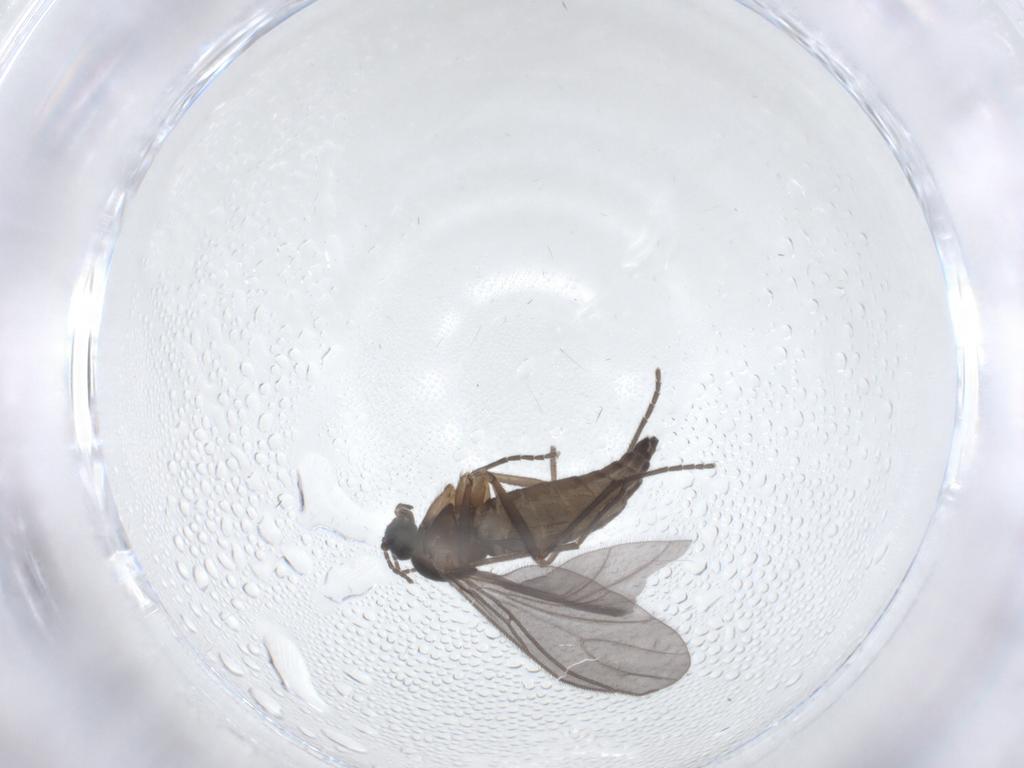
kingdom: Animalia
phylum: Arthropoda
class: Insecta
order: Diptera
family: Sciaridae
